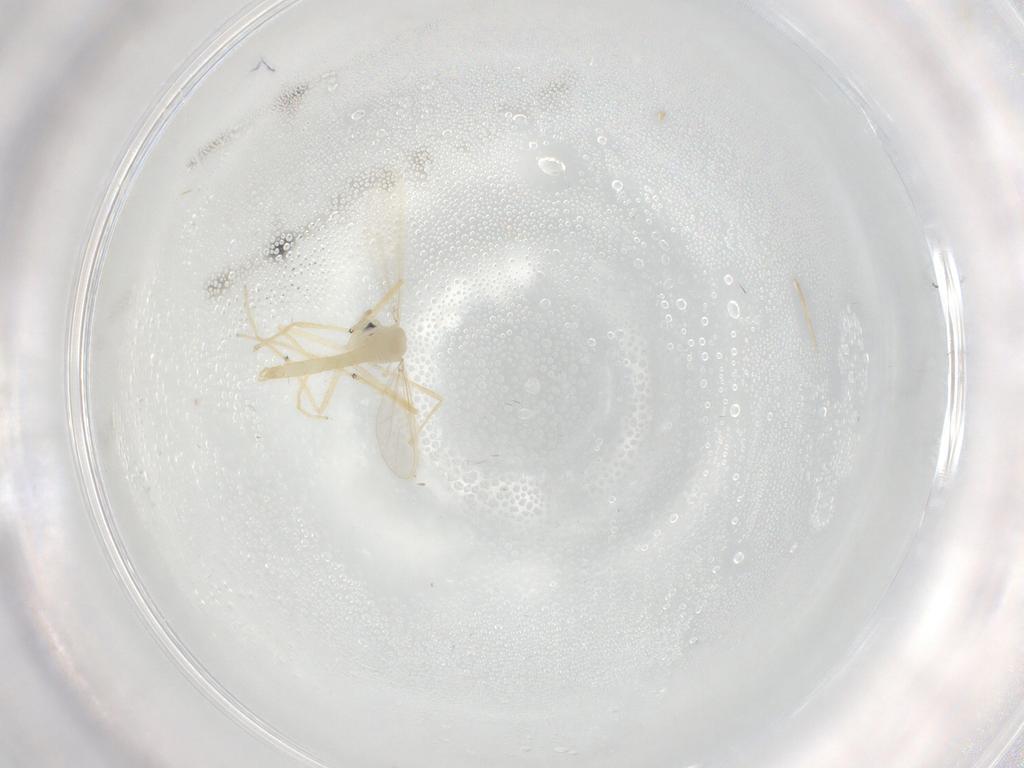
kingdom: Animalia
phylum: Arthropoda
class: Insecta
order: Diptera
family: Chironomidae
